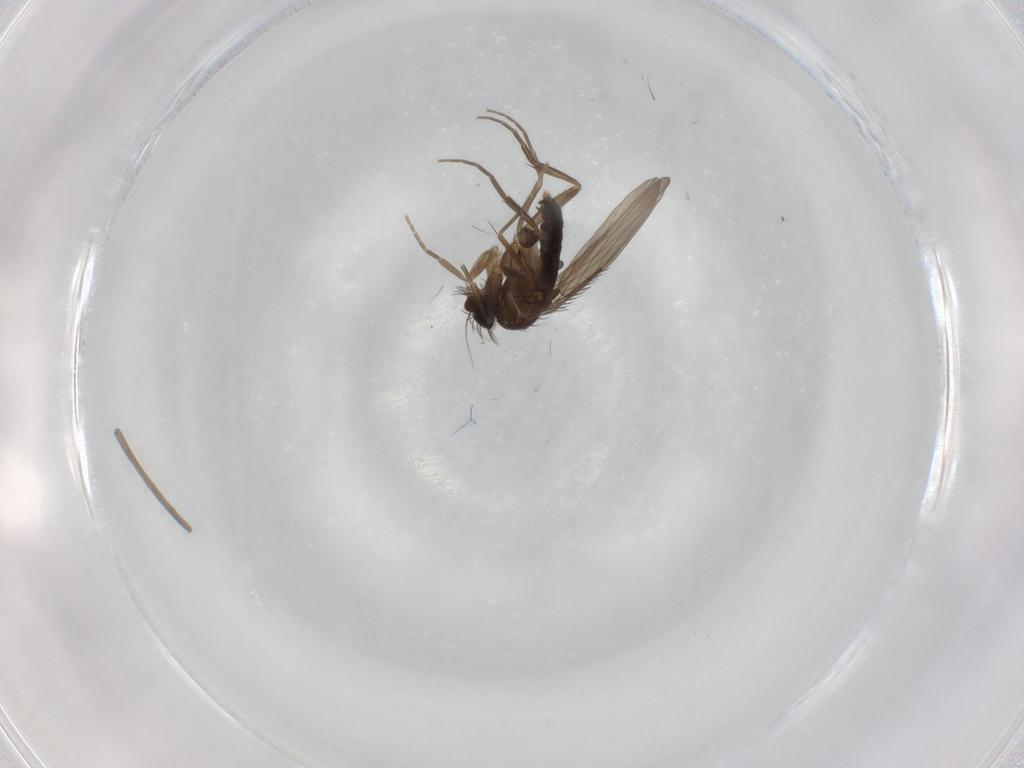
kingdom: Animalia
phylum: Arthropoda
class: Insecta
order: Diptera
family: Phoridae
